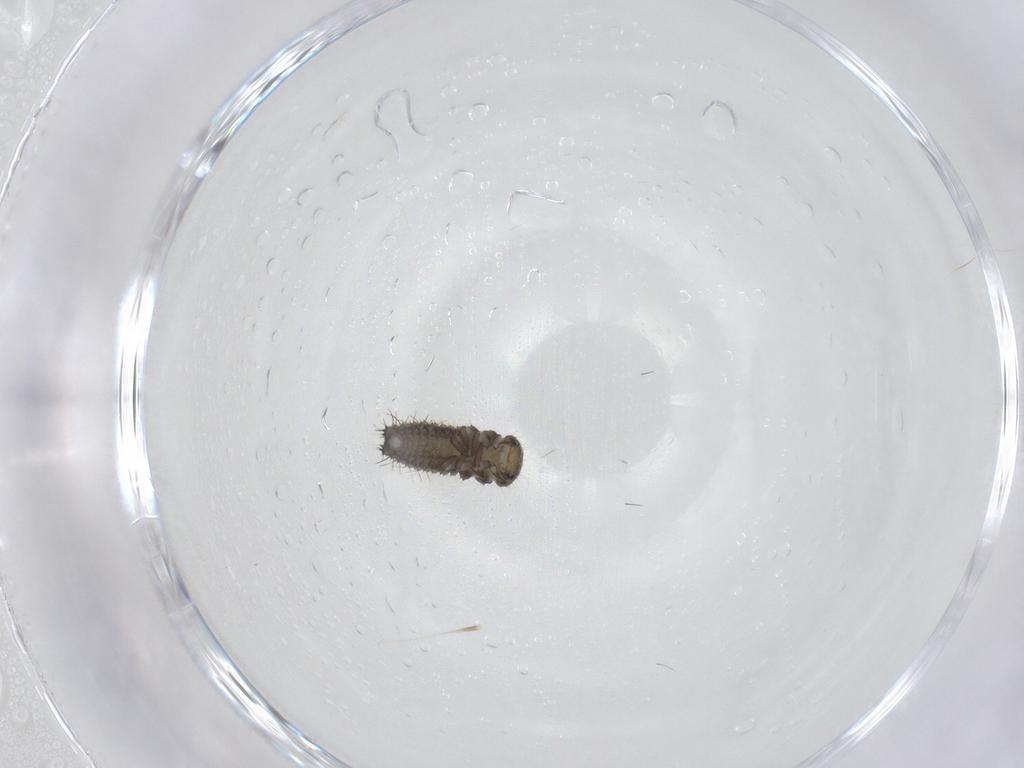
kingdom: Animalia
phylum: Arthropoda
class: Insecta
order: Coleoptera
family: Coccinellidae
